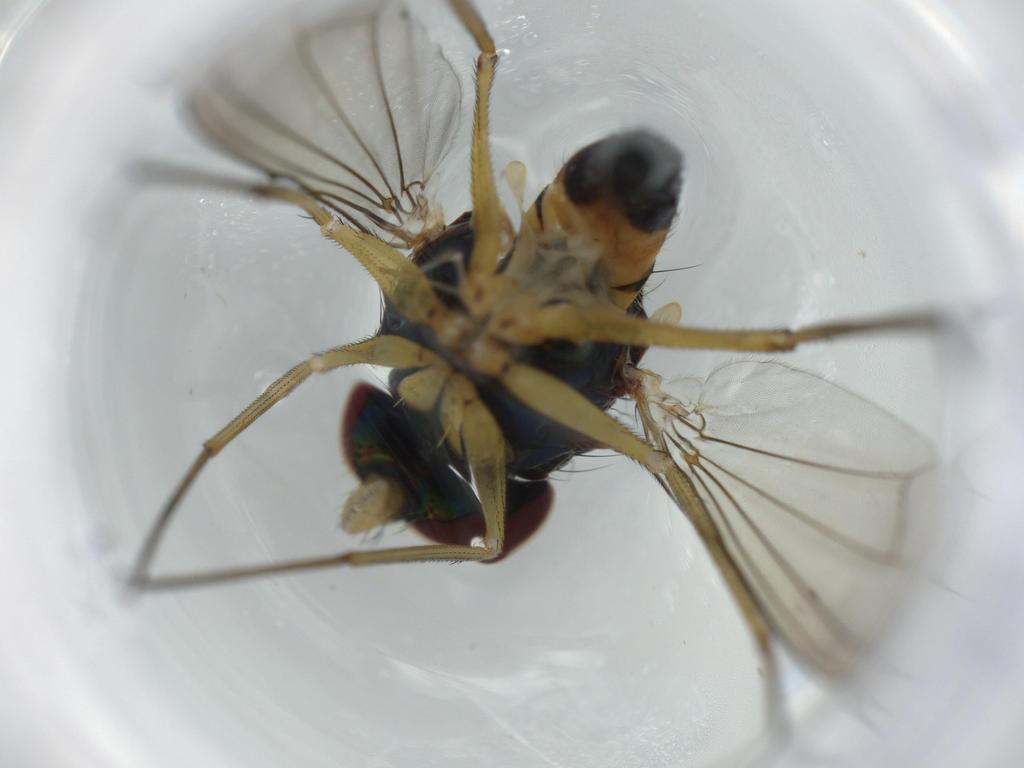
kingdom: Animalia
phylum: Arthropoda
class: Insecta
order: Diptera
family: Dolichopodidae
